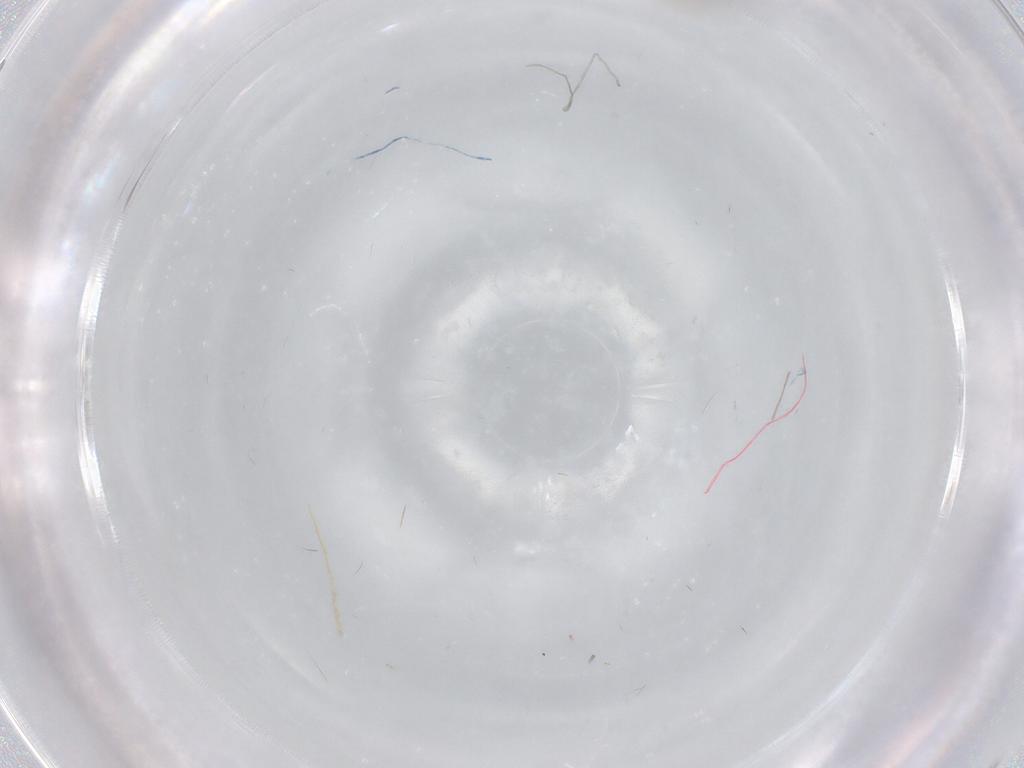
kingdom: Animalia
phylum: Arthropoda
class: Insecta
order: Diptera
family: Cecidomyiidae
